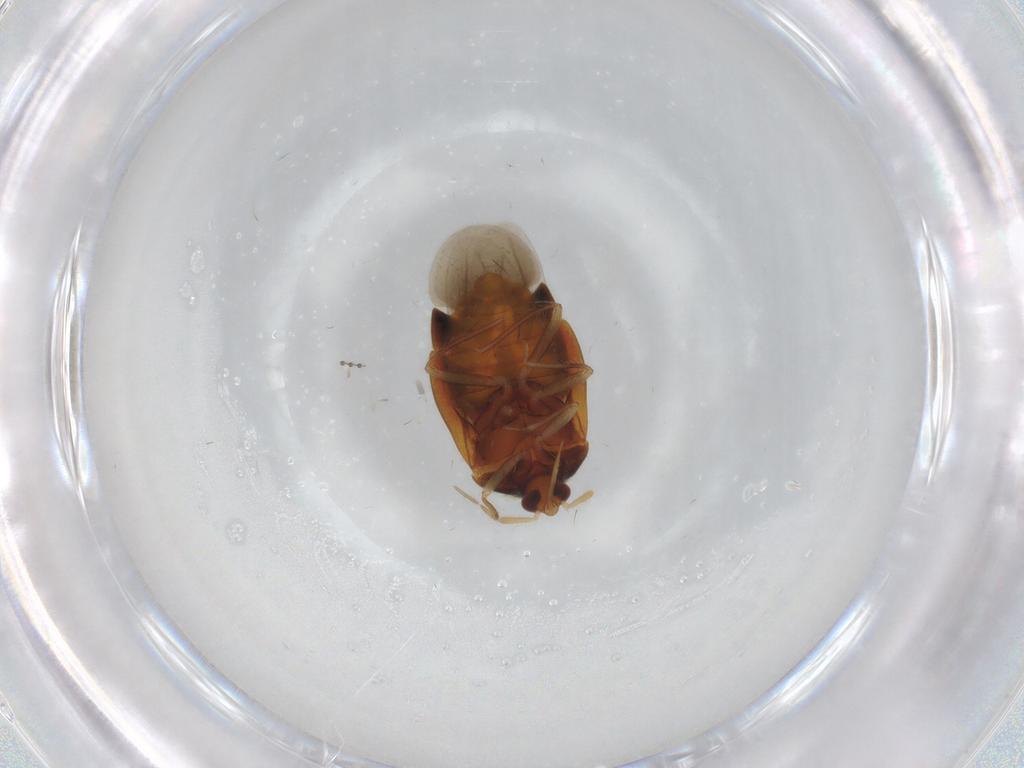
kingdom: Animalia
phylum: Arthropoda
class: Insecta
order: Hemiptera
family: Anthocoridae
